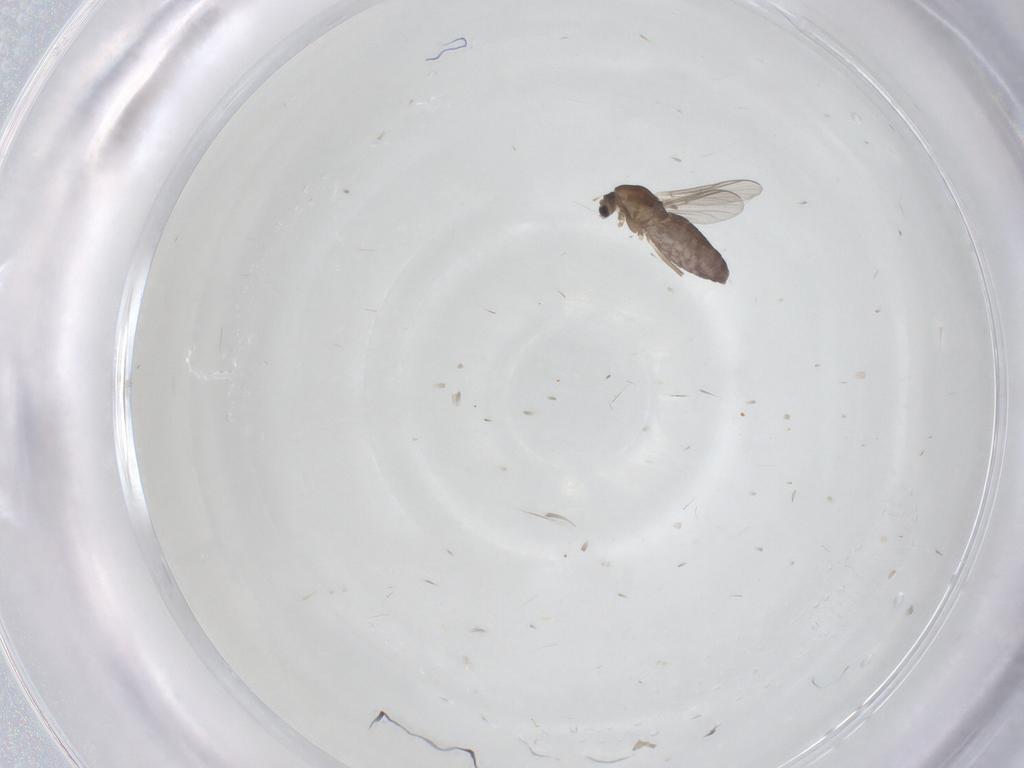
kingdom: Animalia
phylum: Arthropoda
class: Insecta
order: Diptera
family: Chironomidae
